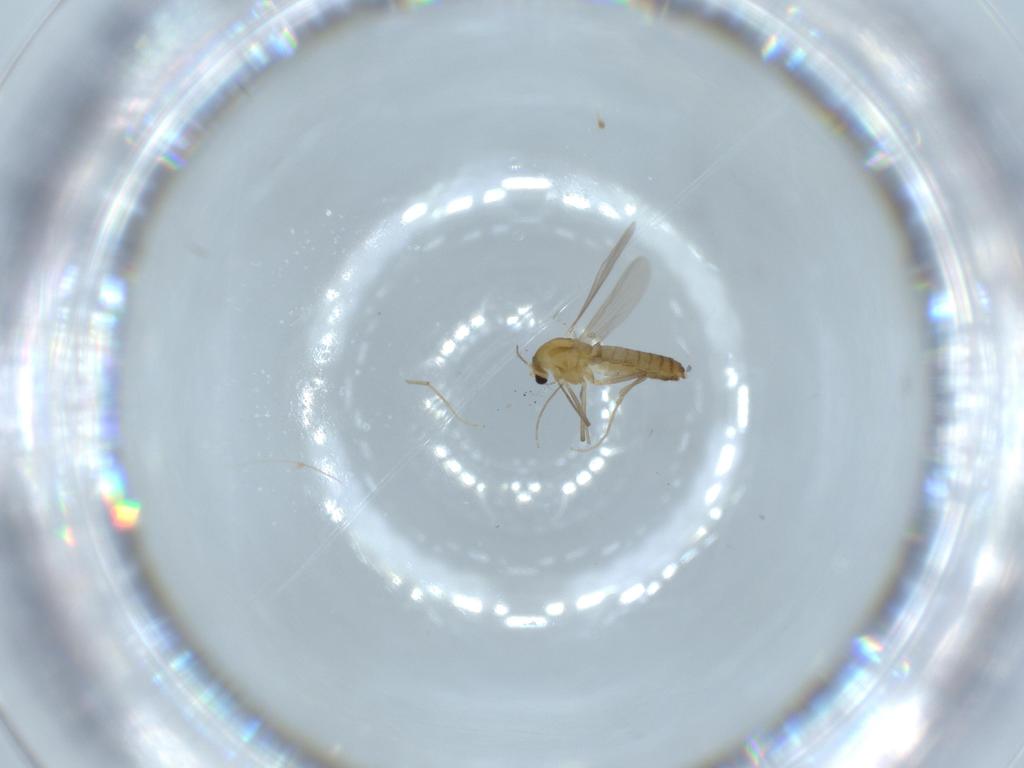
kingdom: Animalia
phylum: Arthropoda
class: Insecta
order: Diptera
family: Chironomidae
